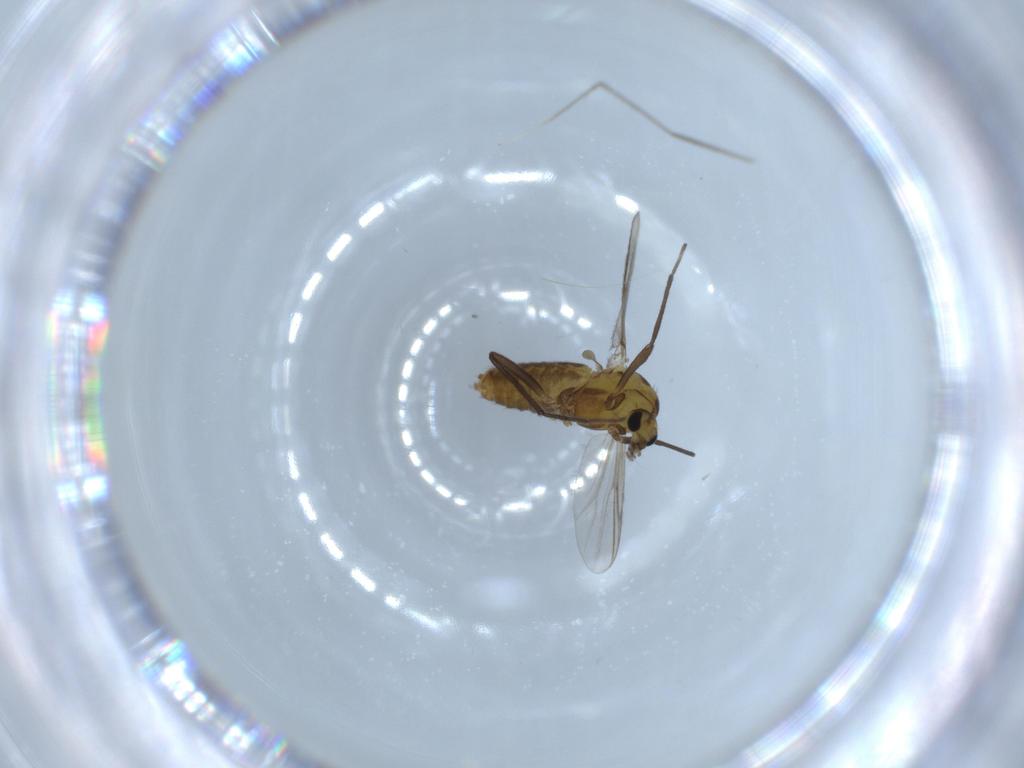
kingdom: Animalia
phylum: Arthropoda
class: Insecta
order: Diptera
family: Chironomidae
